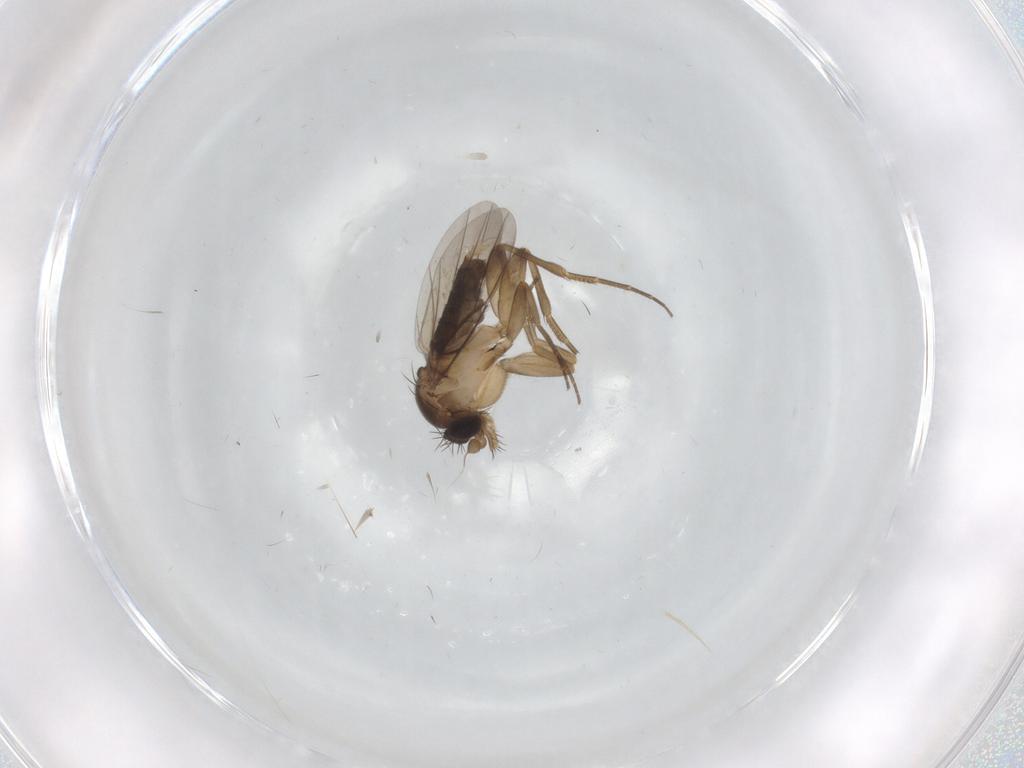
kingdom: Animalia
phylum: Arthropoda
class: Insecta
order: Diptera
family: Phoridae
